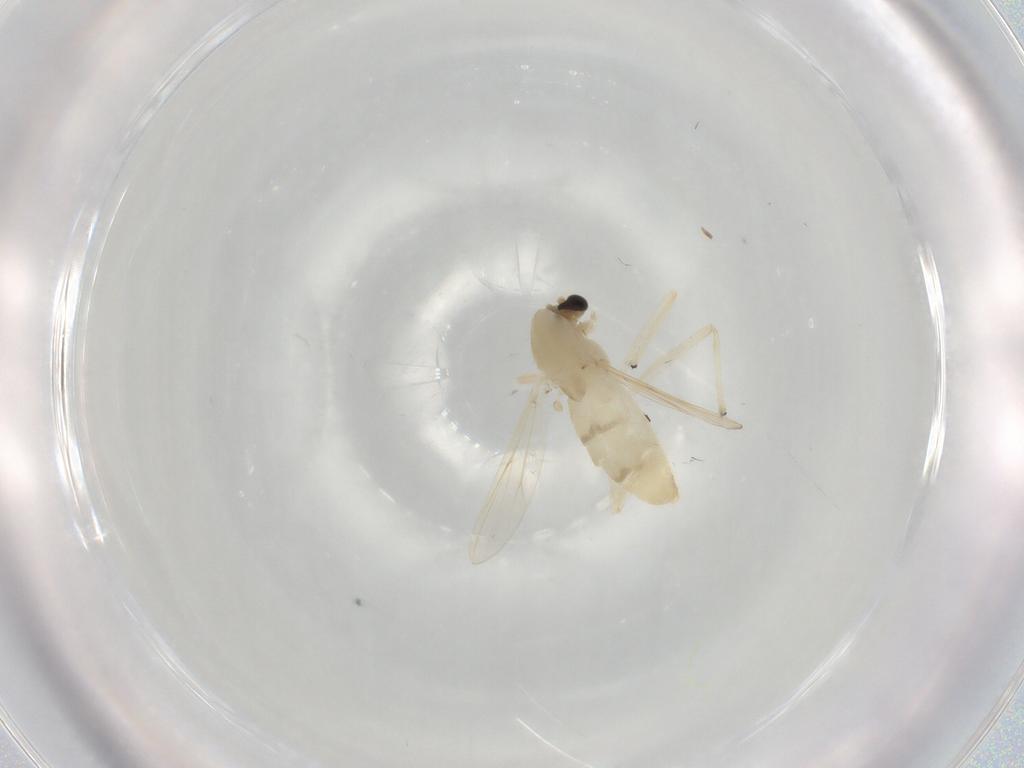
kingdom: Animalia
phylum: Arthropoda
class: Insecta
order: Diptera
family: Chironomidae
